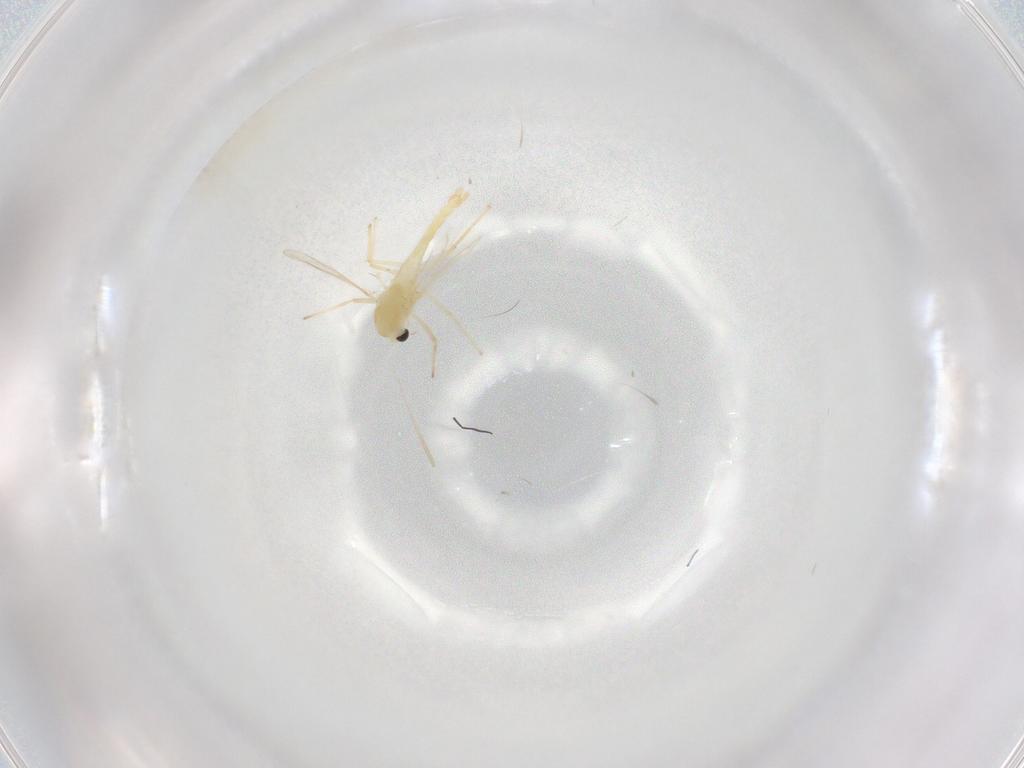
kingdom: Animalia
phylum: Arthropoda
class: Insecta
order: Diptera
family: Chironomidae
